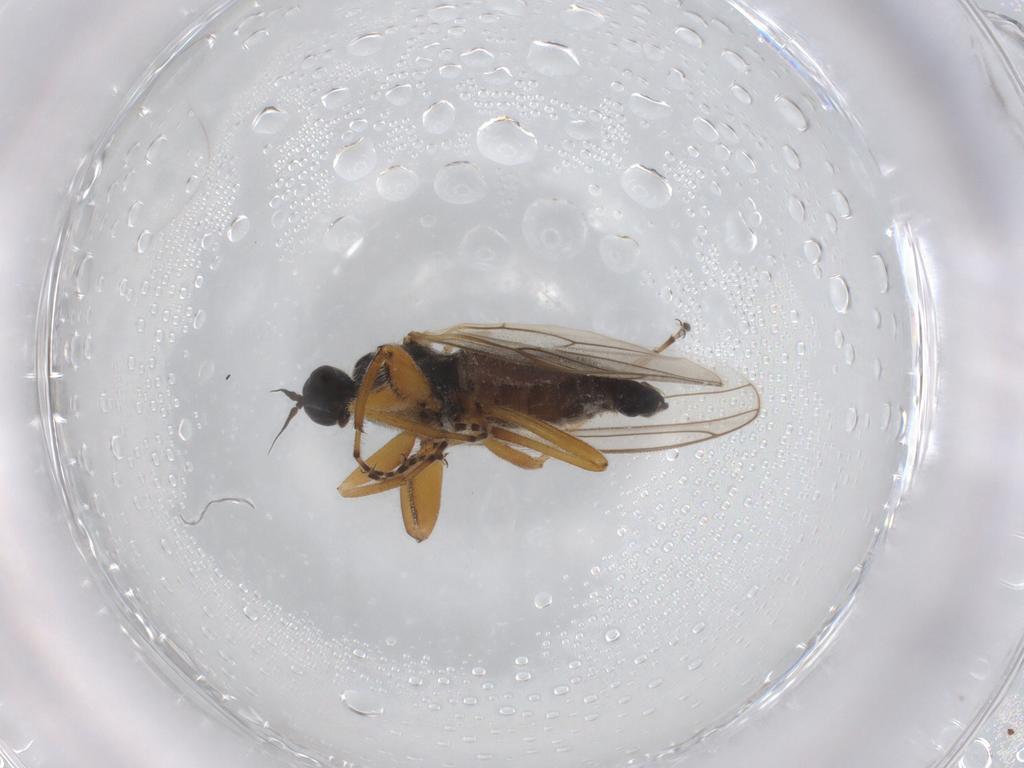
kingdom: Animalia
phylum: Arthropoda
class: Insecta
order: Diptera
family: Hybotidae
